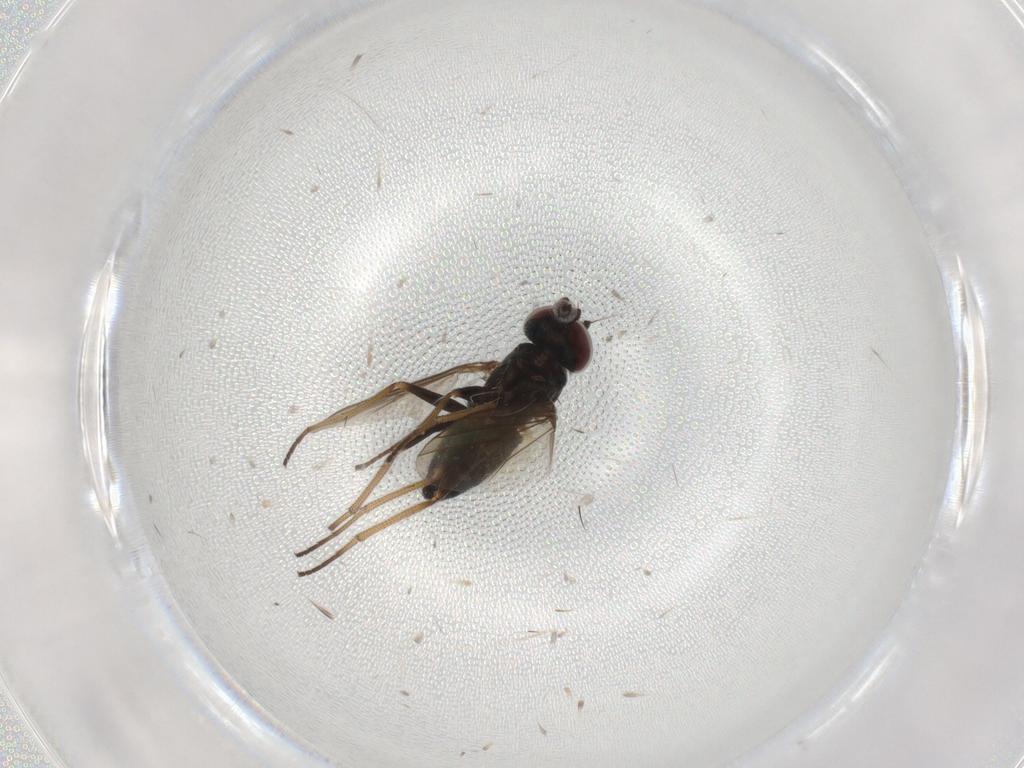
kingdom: Animalia
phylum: Arthropoda
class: Insecta
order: Diptera
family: Dolichopodidae
